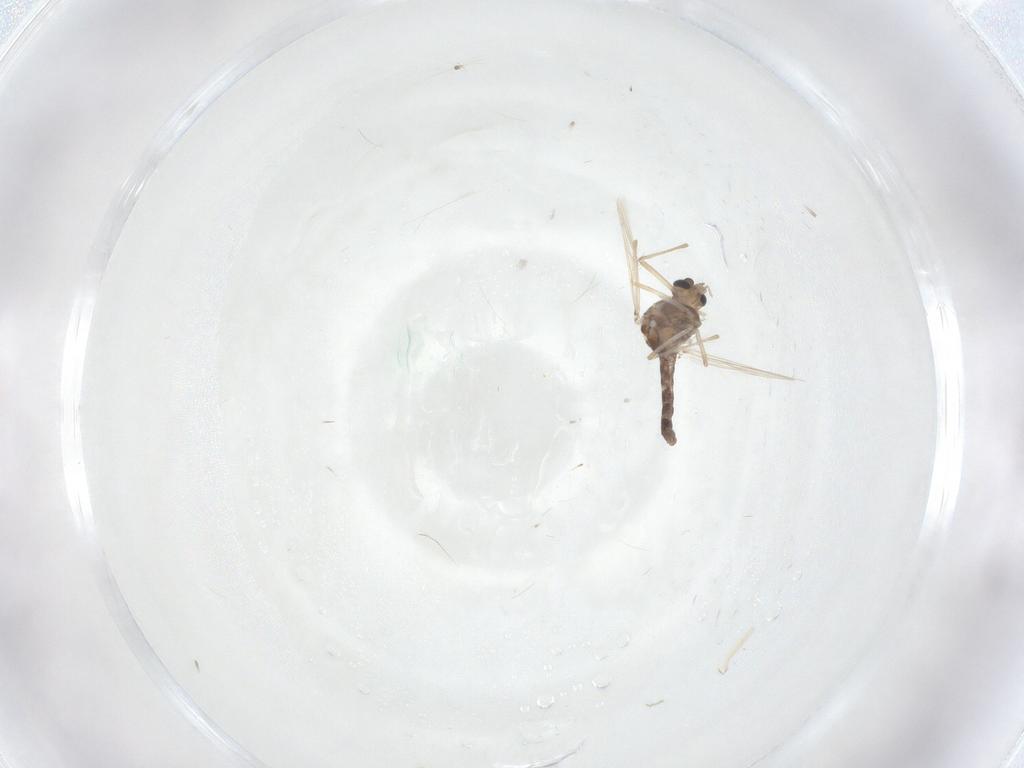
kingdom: Animalia
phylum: Arthropoda
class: Insecta
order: Diptera
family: Chironomidae
